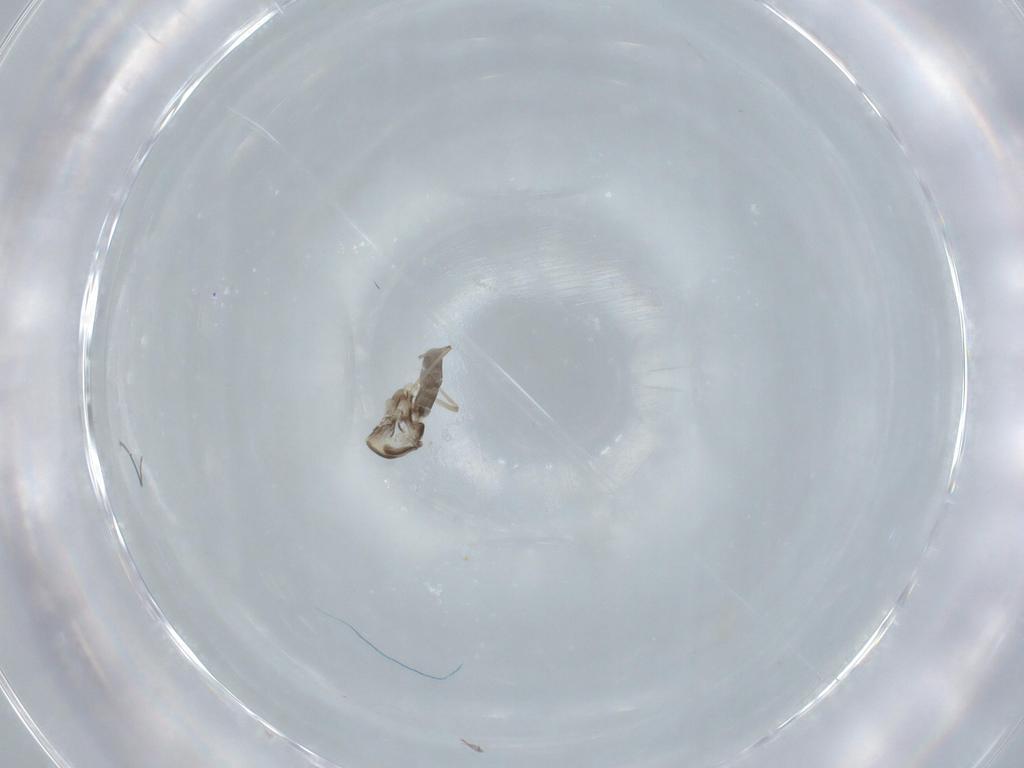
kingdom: Animalia
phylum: Arthropoda
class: Insecta
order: Diptera
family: Chironomidae
